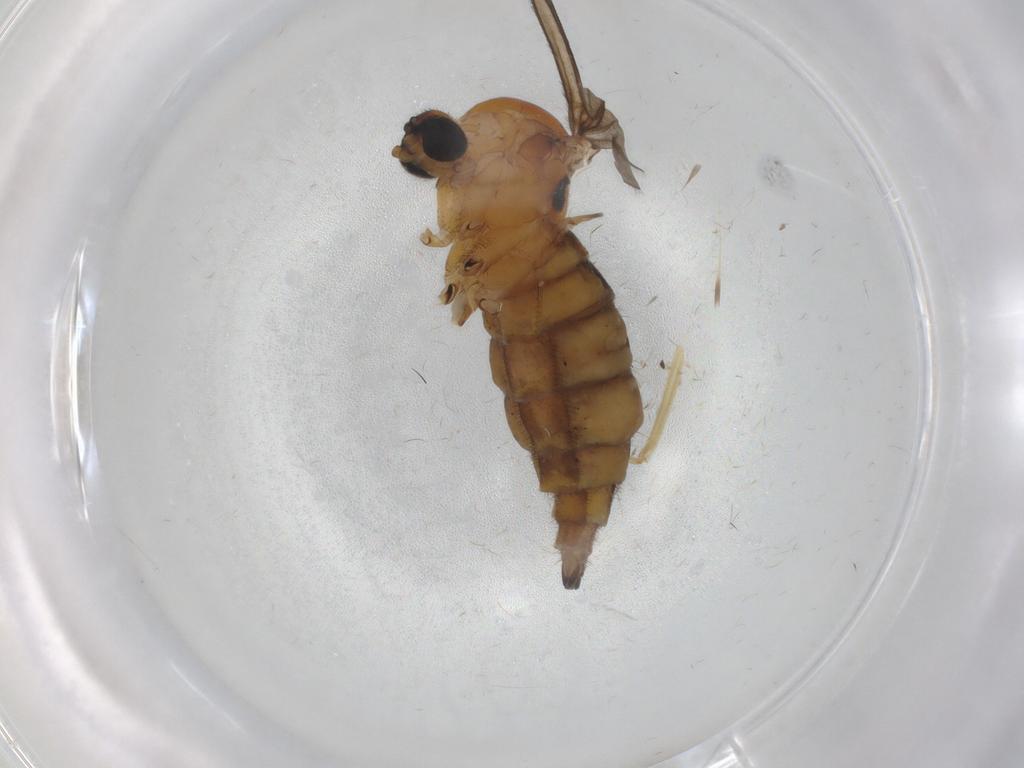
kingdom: Animalia
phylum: Arthropoda
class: Insecta
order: Diptera
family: Sciaridae
